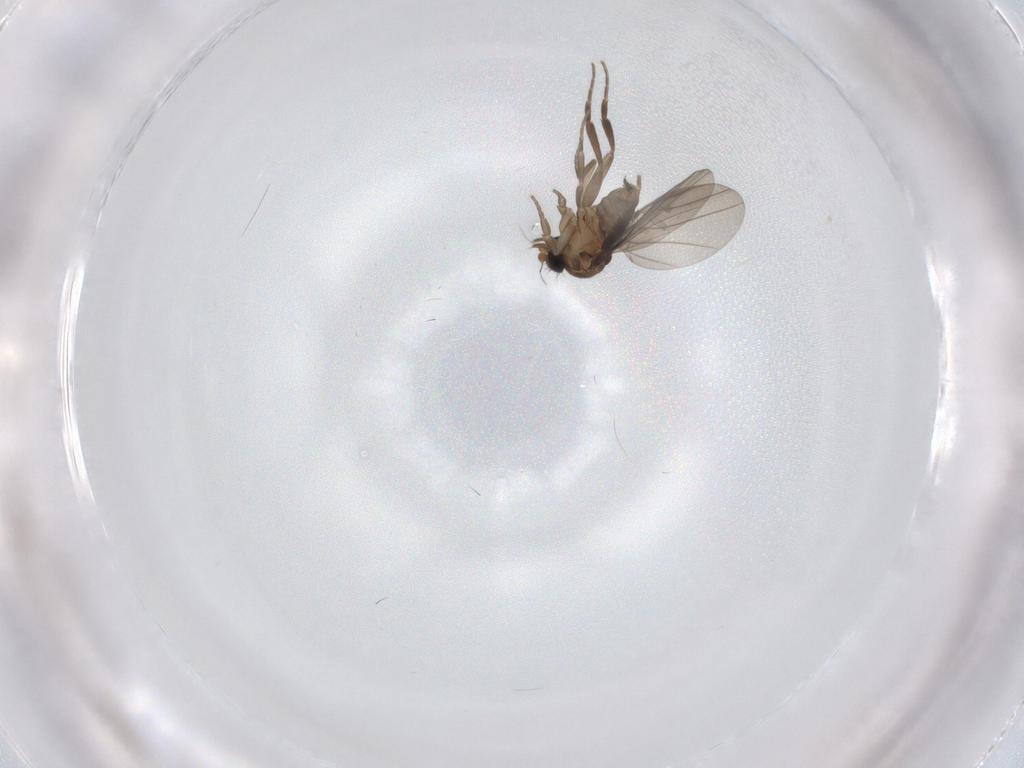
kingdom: Animalia
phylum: Arthropoda
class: Insecta
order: Diptera
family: Phoridae
